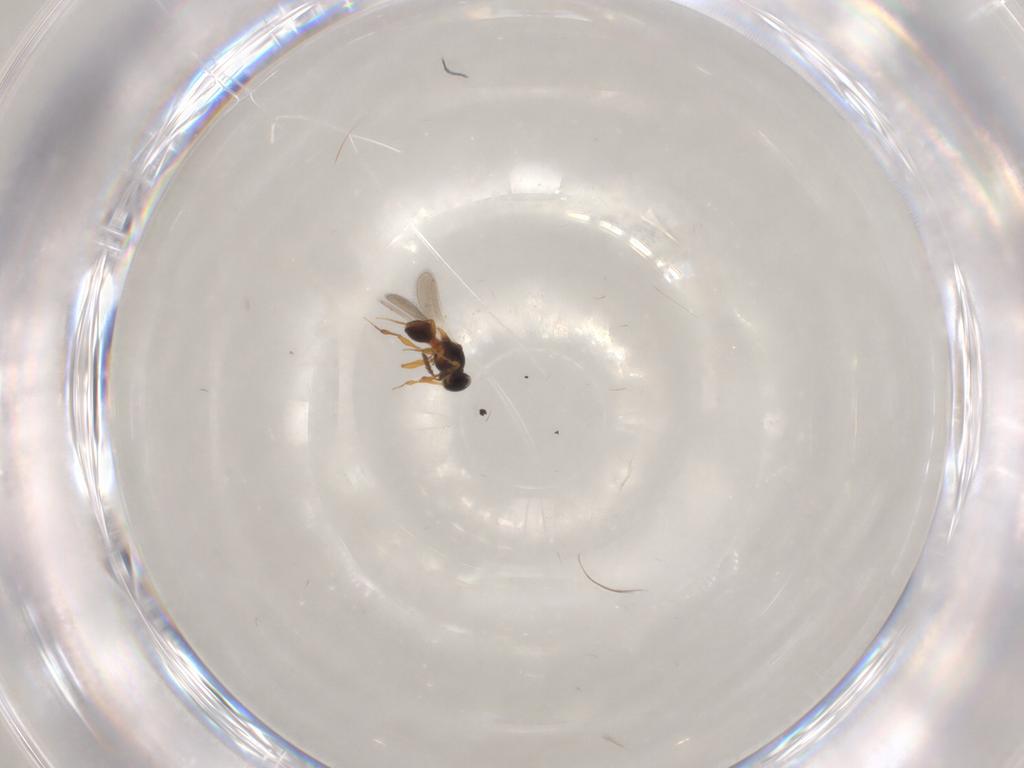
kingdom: Animalia
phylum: Arthropoda
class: Insecta
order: Hymenoptera
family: Platygastridae
